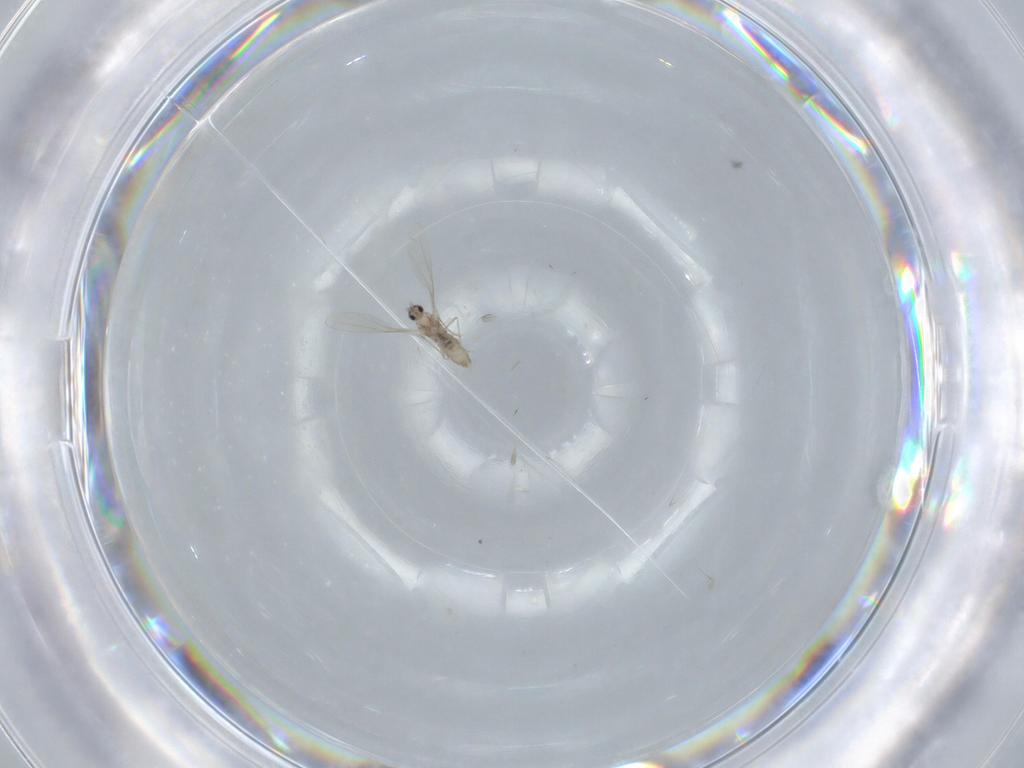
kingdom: Animalia
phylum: Arthropoda
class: Insecta
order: Diptera
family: Cecidomyiidae
